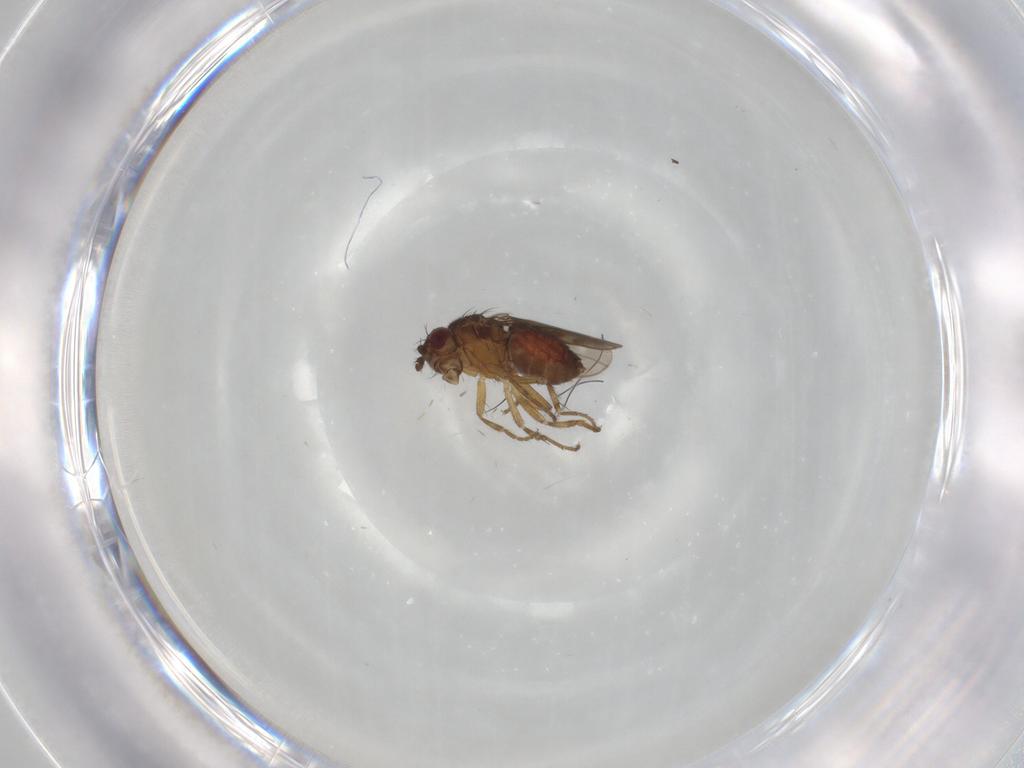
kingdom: Animalia
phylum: Arthropoda
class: Insecta
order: Diptera
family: Sphaeroceridae
